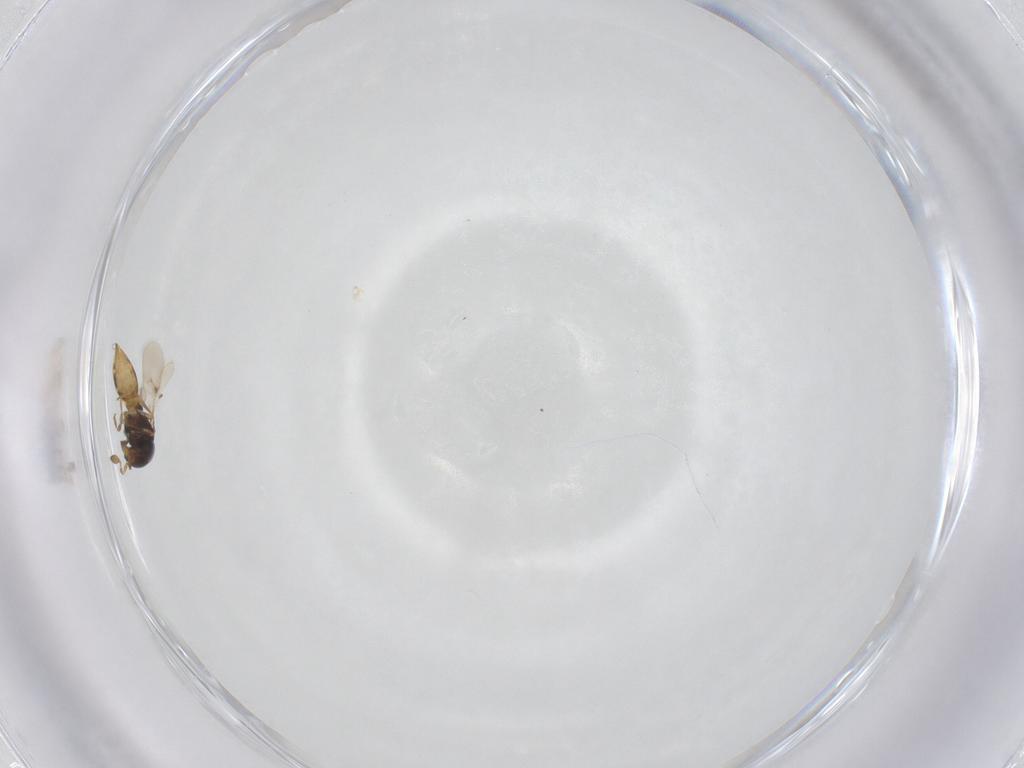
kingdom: Animalia
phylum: Arthropoda
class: Insecta
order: Hymenoptera
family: Scelionidae
